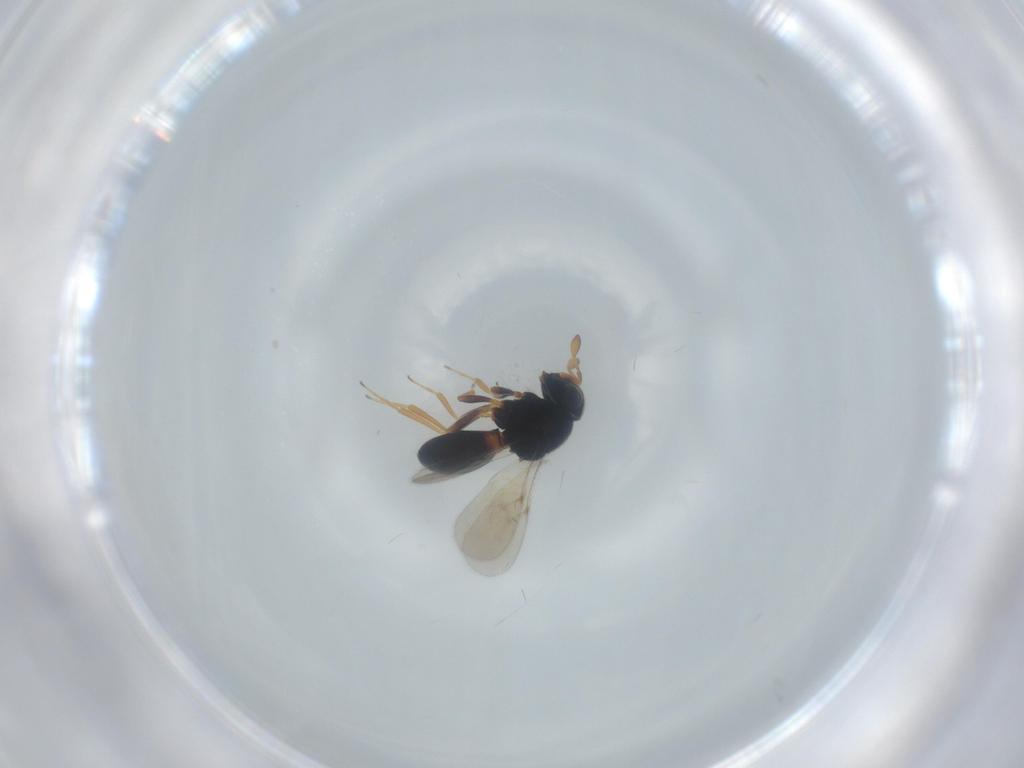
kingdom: Animalia
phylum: Arthropoda
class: Insecta
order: Hymenoptera
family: Scelionidae
